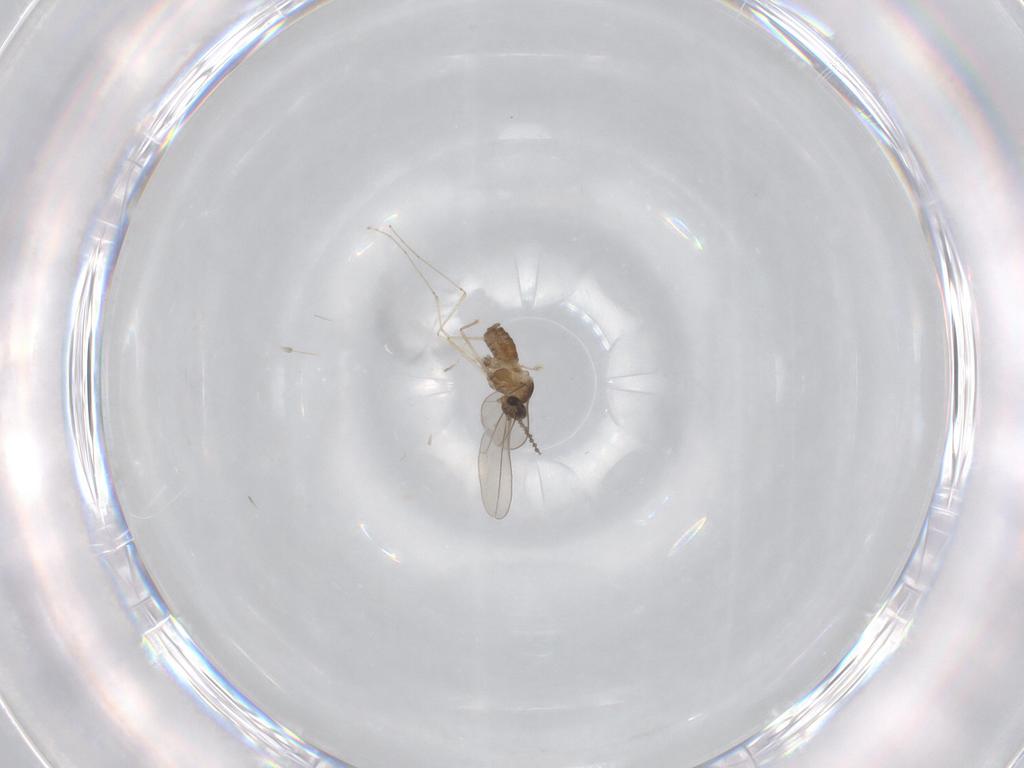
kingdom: Animalia
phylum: Arthropoda
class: Insecta
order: Diptera
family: Cecidomyiidae
